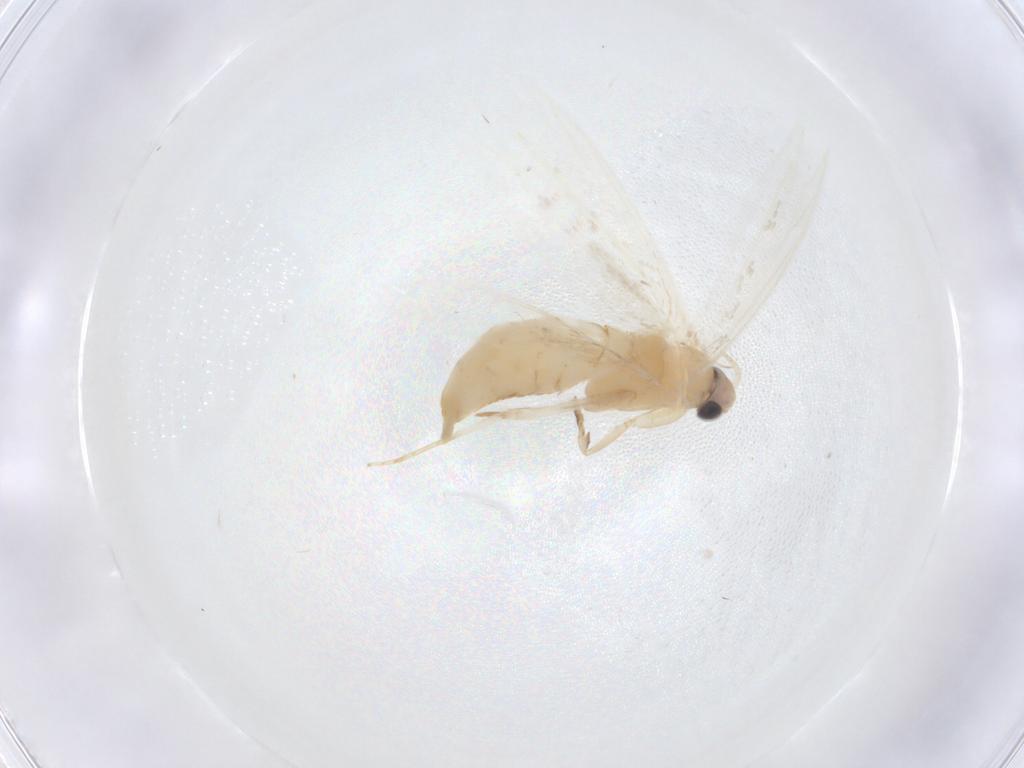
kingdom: Animalia
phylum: Arthropoda
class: Insecta
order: Lepidoptera
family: Tineidae
